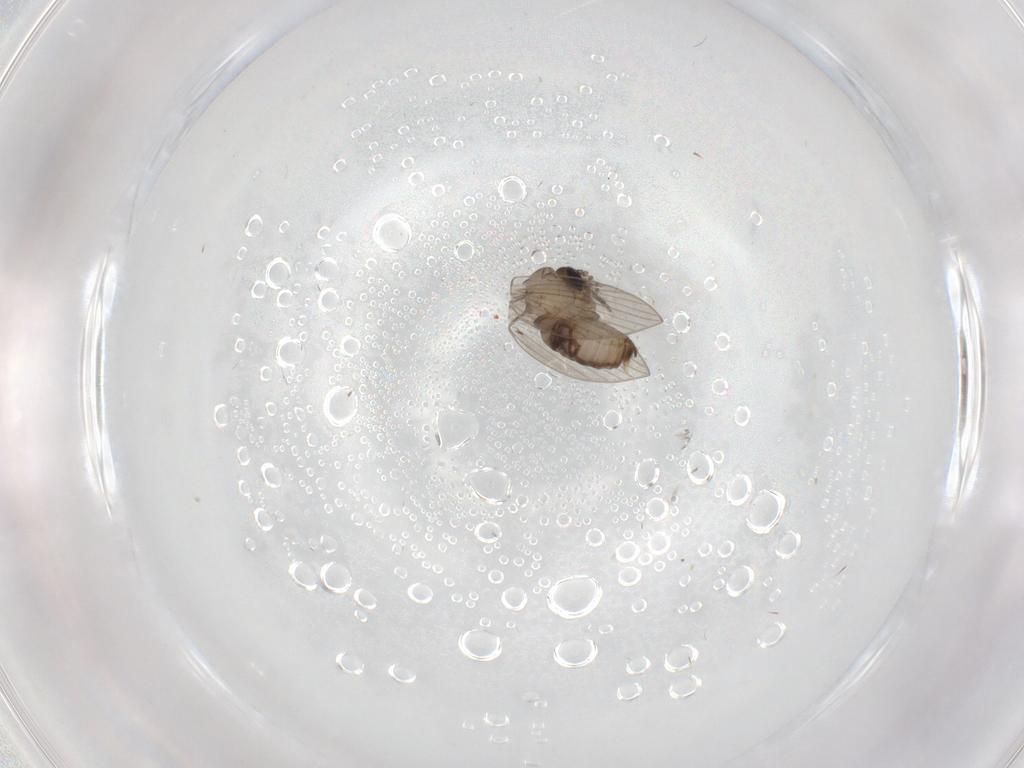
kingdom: Animalia
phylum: Arthropoda
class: Insecta
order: Diptera
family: Psychodidae
